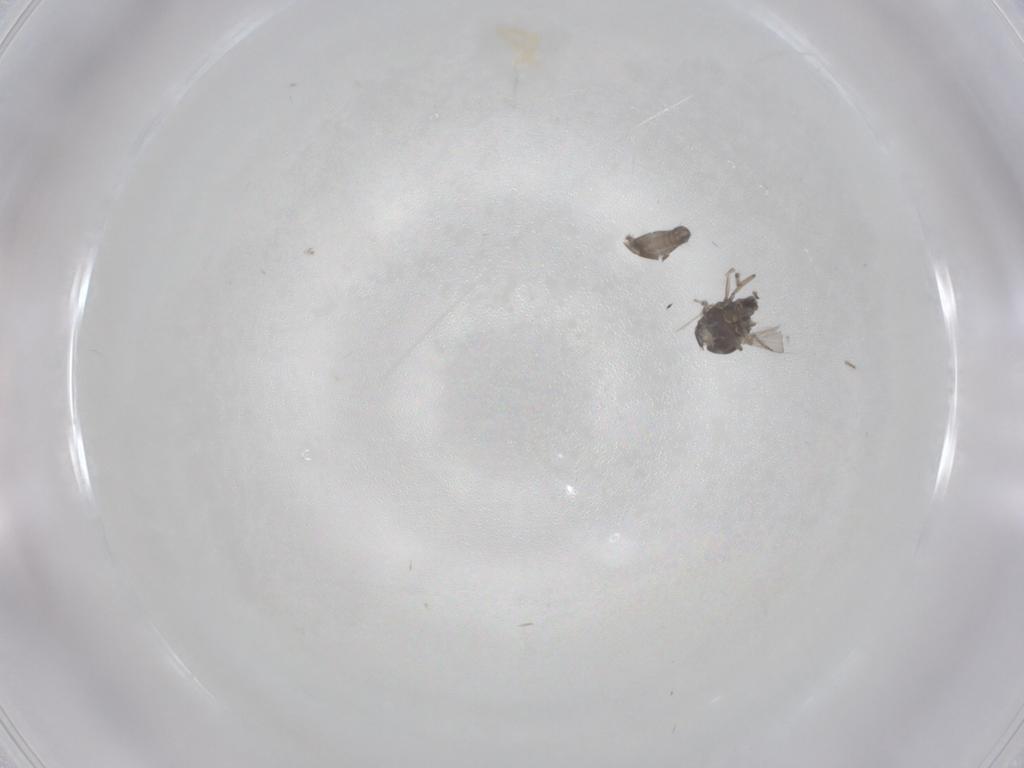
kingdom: Animalia
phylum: Arthropoda
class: Insecta
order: Diptera
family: Ceratopogonidae
